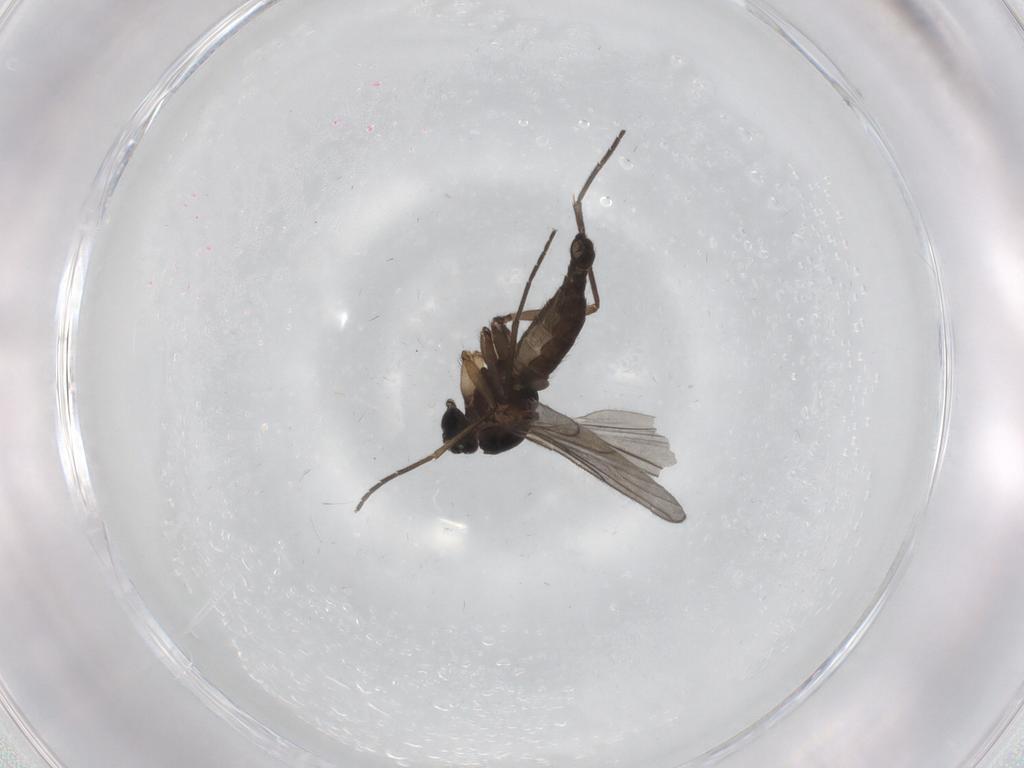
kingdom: Animalia
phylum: Arthropoda
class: Insecta
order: Diptera
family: Sciaridae
